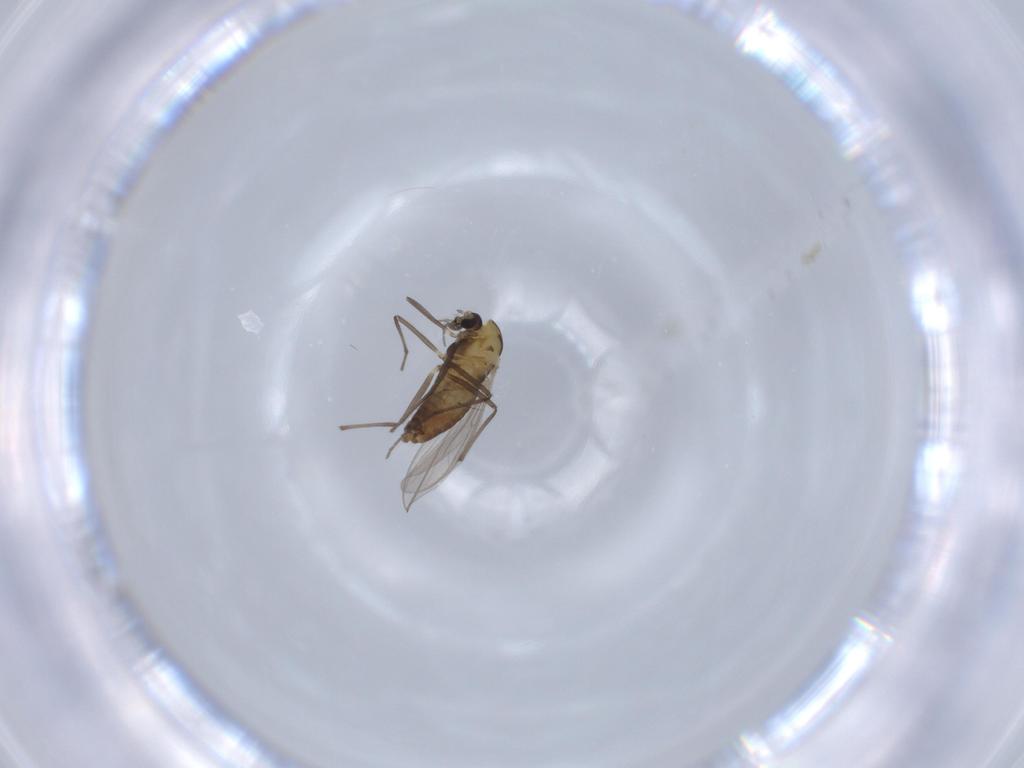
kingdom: Animalia
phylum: Arthropoda
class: Insecta
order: Diptera
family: Chironomidae
